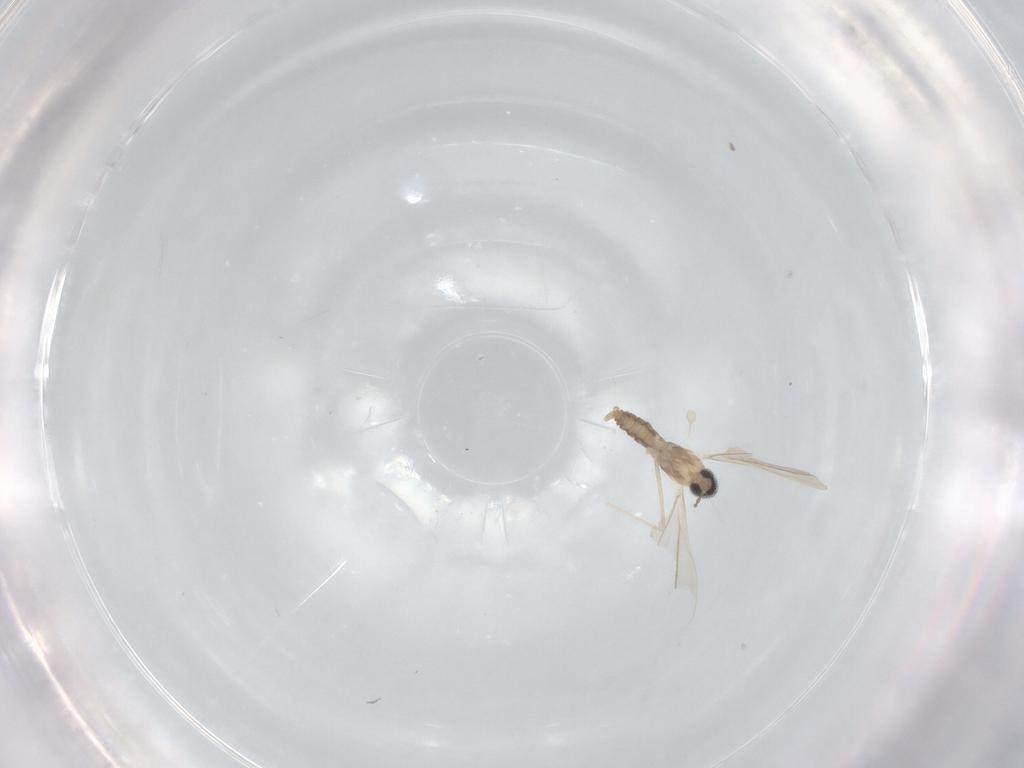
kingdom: Animalia
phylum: Arthropoda
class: Insecta
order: Diptera
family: Cecidomyiidae
